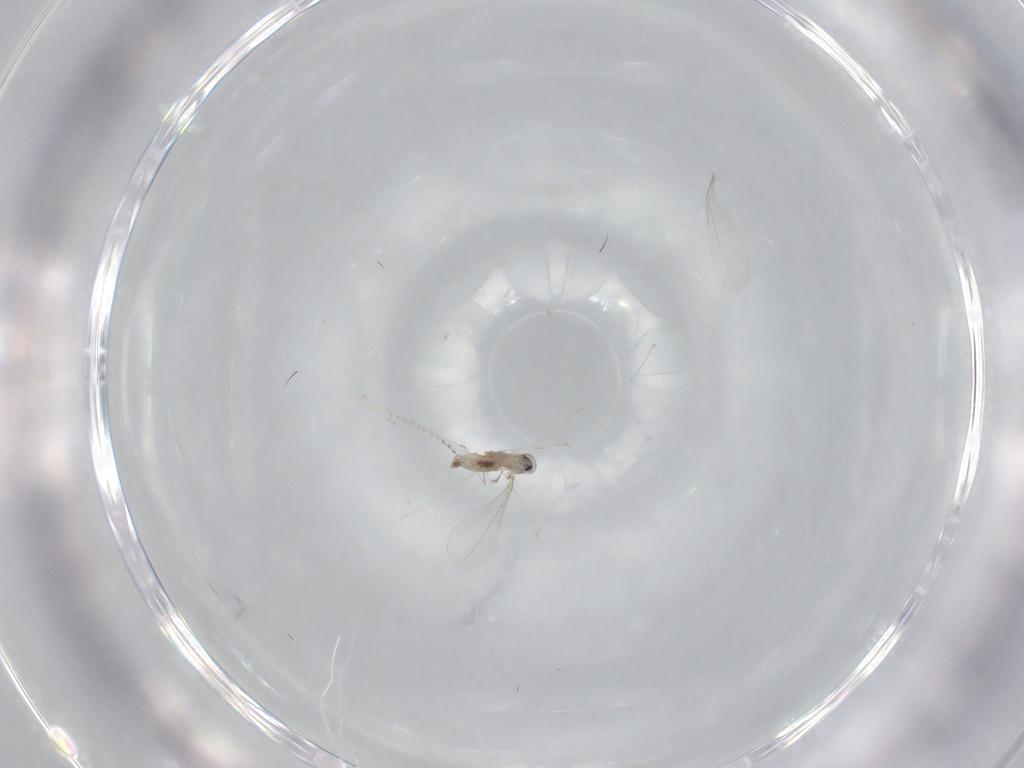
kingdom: Animalia
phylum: Arthropoda
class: Insecta
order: Diptera
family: Cecidomyiidae
